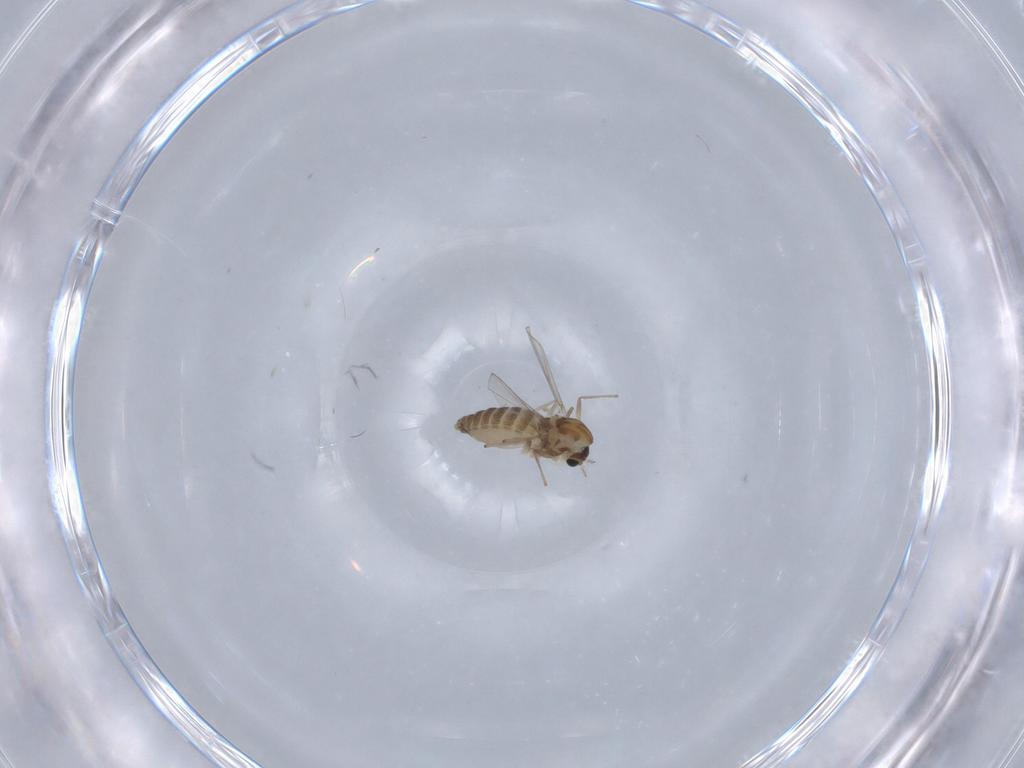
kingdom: Animalia
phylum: Arthropoda
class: Insecta
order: Diptera
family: Chironomidae
